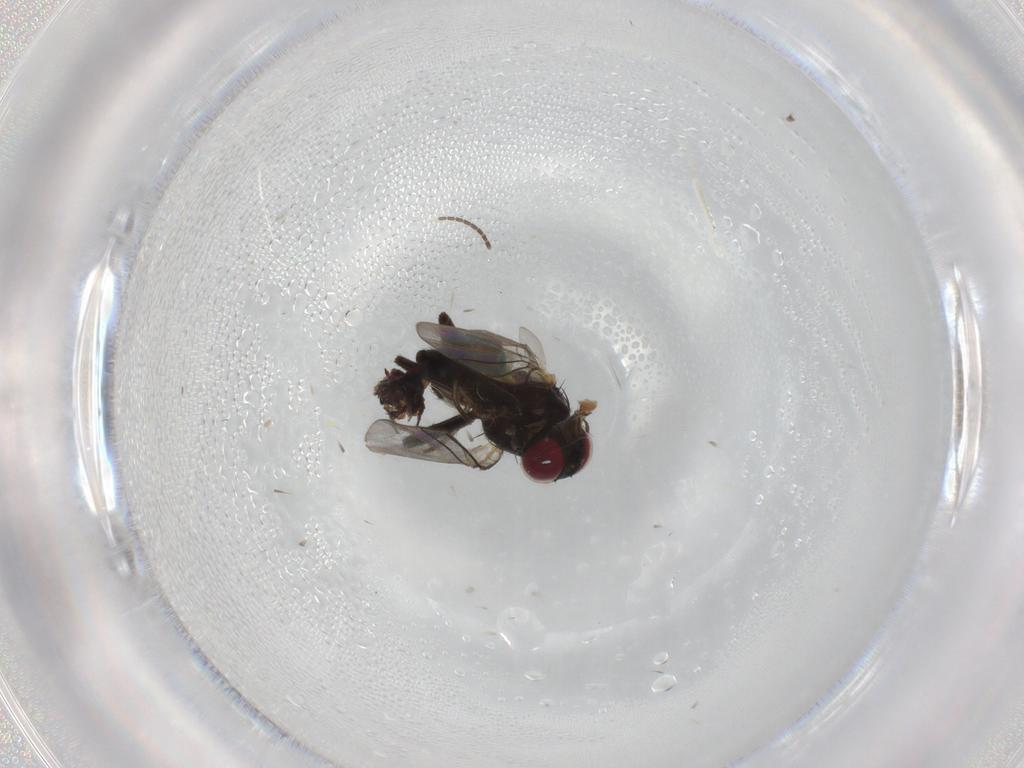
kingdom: Animalia
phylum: Arthropoda
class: Insecta
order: Diptera
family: Sciaridae
